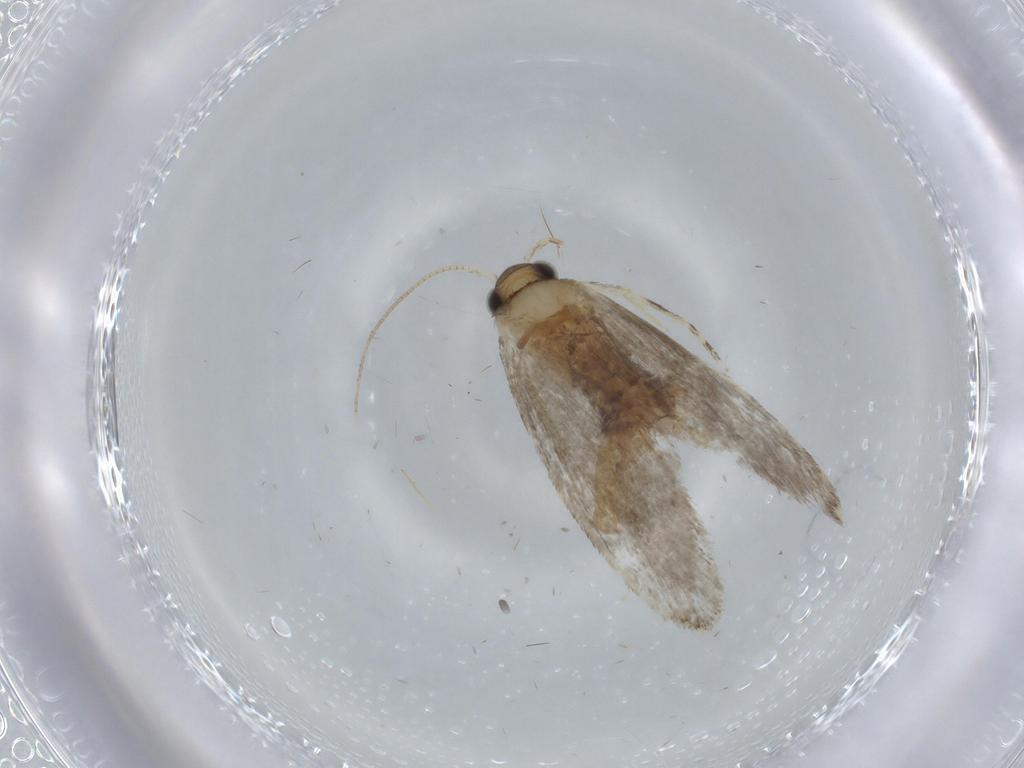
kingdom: Animalia
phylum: Arthropoda
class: Insecta
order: Lepidoptera
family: Tineidae
